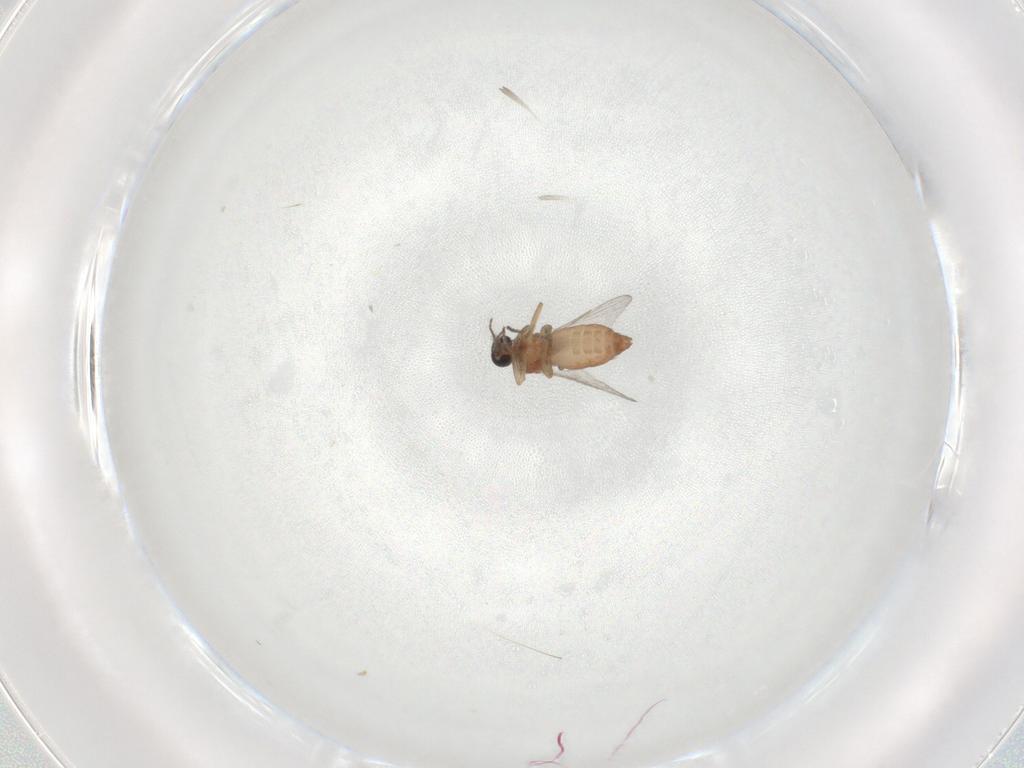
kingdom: Animalia
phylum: Arthropoda
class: Insecta
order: Diptera
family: Ceratopogonidae
